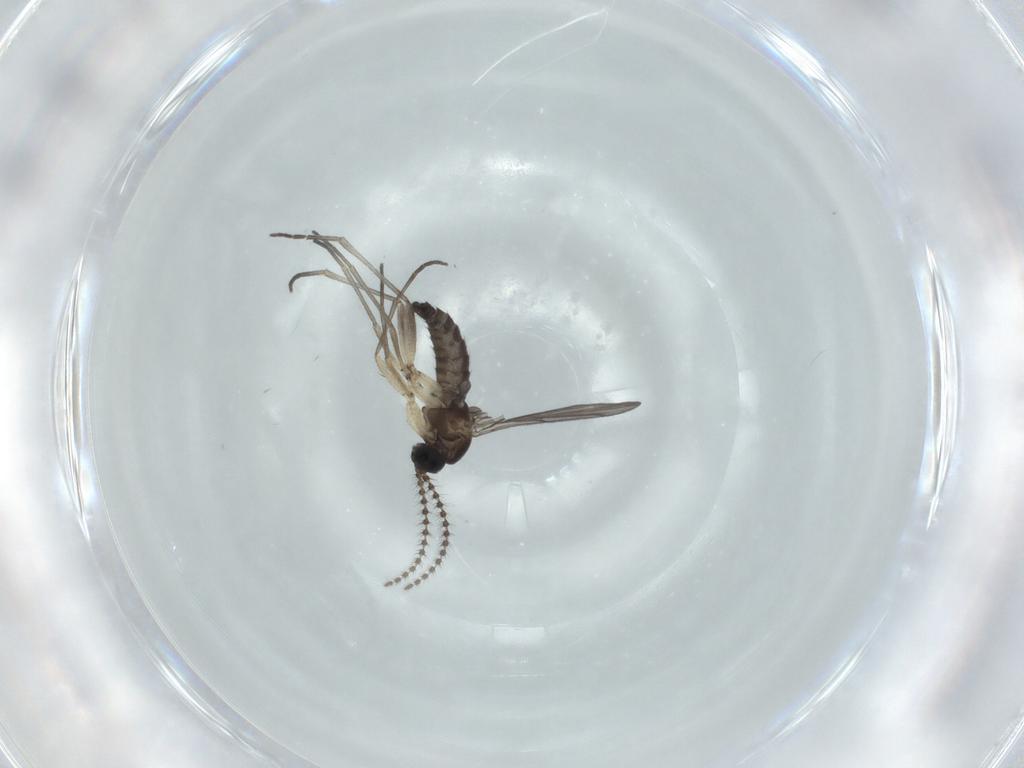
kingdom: Animalia
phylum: Arthropoda
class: Insecta
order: Diptera
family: Sciaridae
